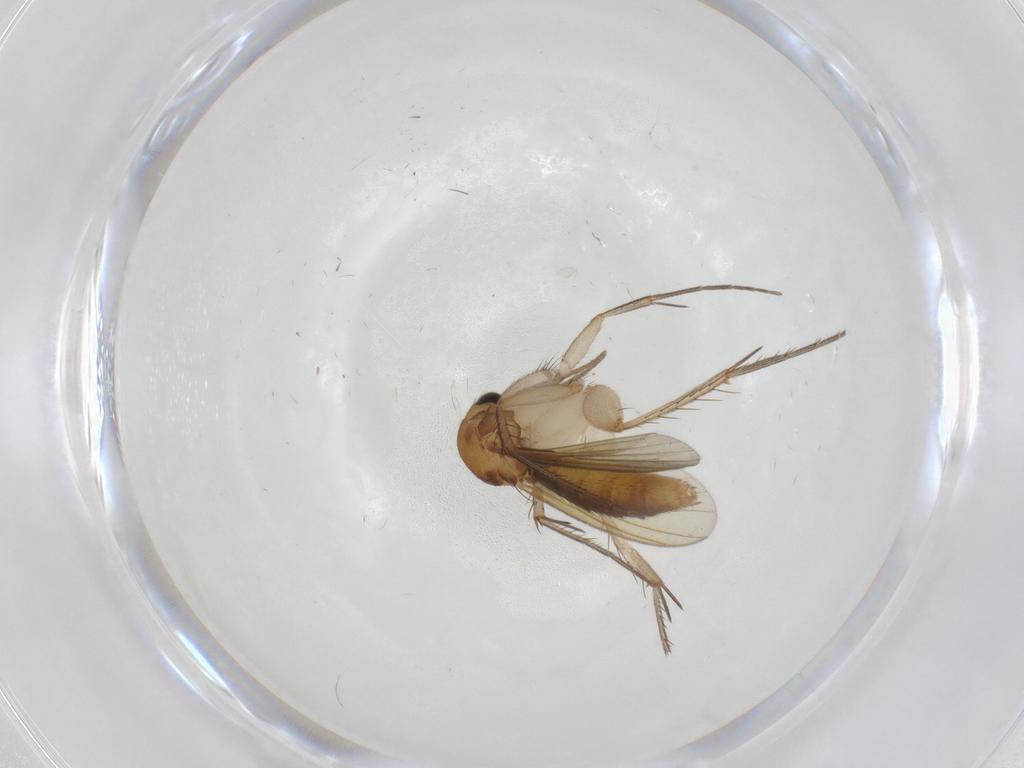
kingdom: Animalia
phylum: Arthropoda
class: Insecta
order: Diptera
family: Mycetophilidae
